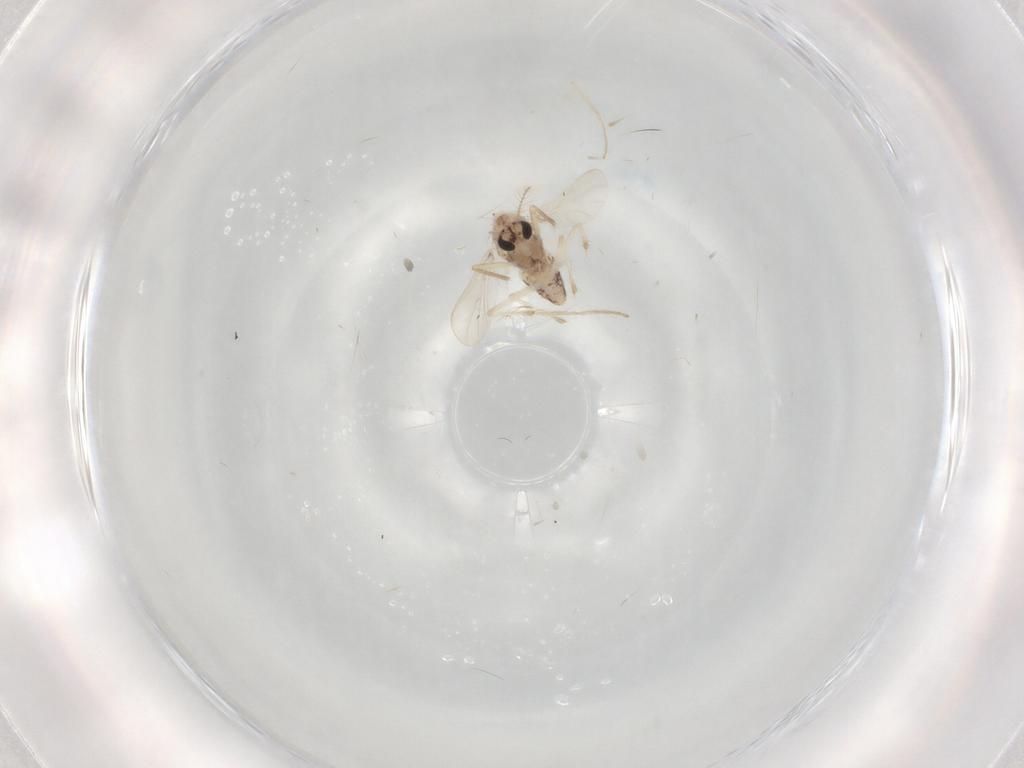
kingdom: Animalia
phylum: Arthropoda
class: Insecta
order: Diptera
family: Chironomidae
